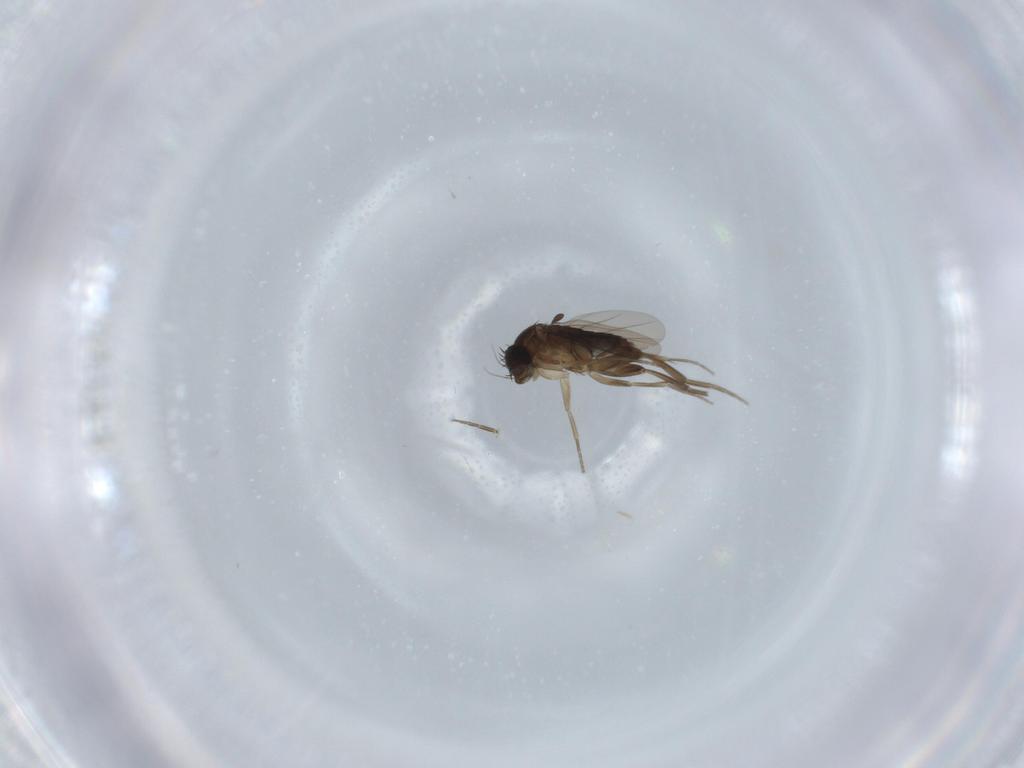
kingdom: Animalia
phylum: Arthropoda
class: Insecta
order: Diptera
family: Phoridae
